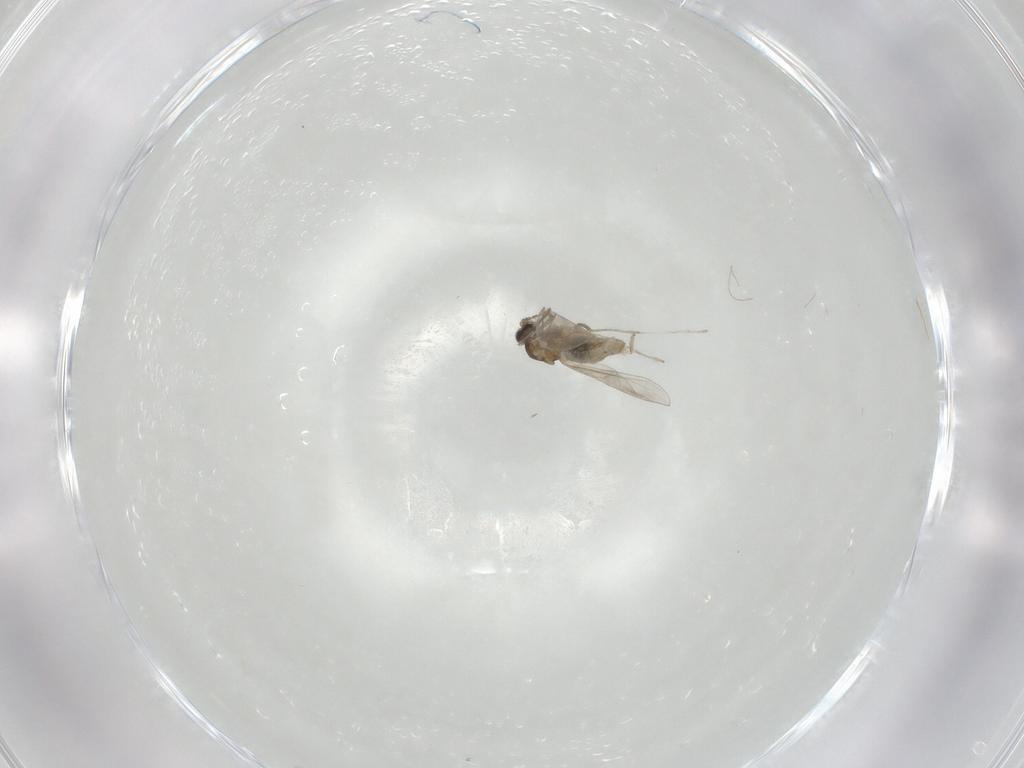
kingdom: Animalia
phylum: Arthropoda
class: Insecta
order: Diptera
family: Cecidomyiidae
